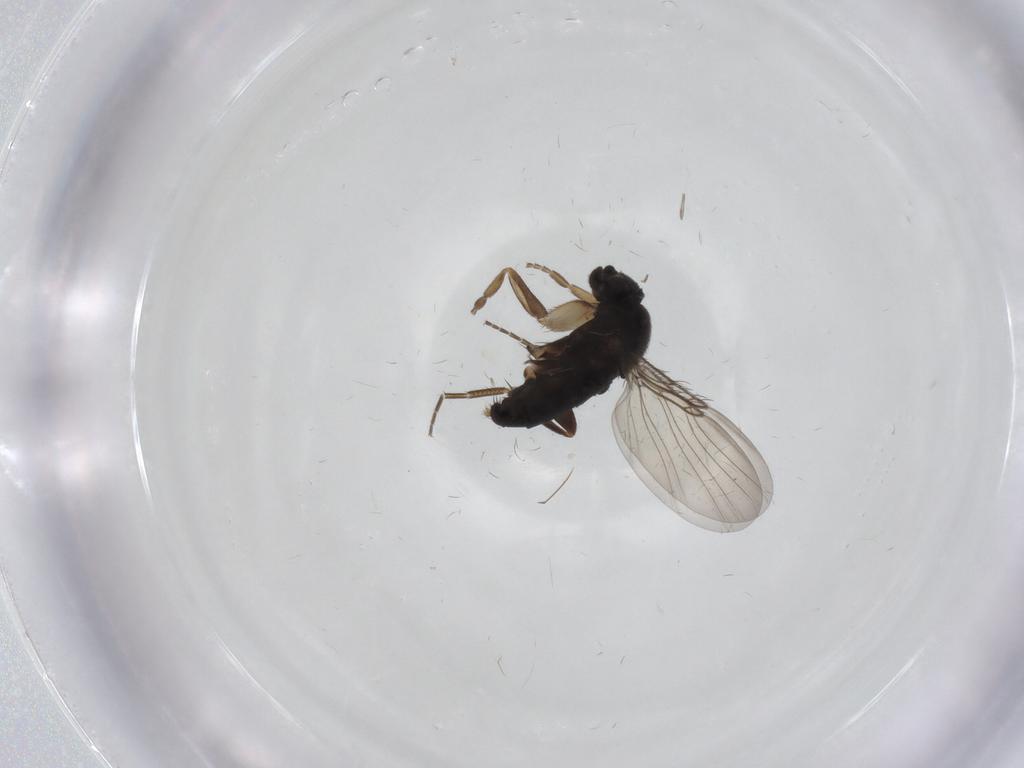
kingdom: Animalia
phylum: Arthropoda
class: Insecta
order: Diptera
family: Phoridae
